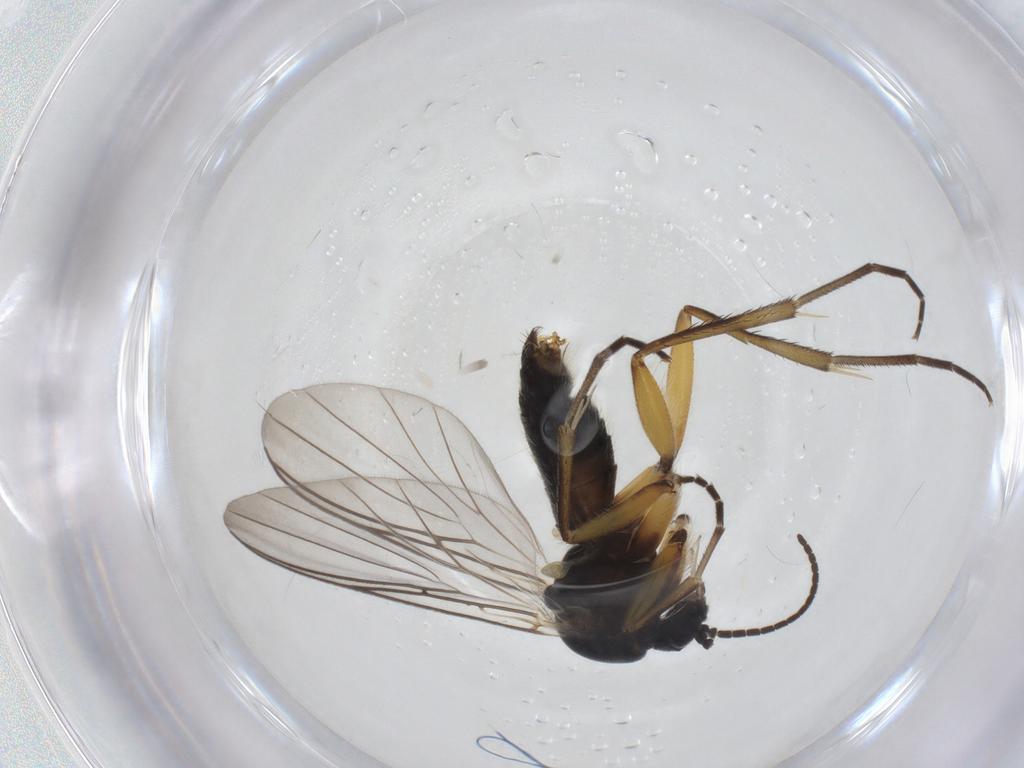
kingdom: Animalia
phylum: Arthropoda
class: Insecta
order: Diptera
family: Mycetophilidae
